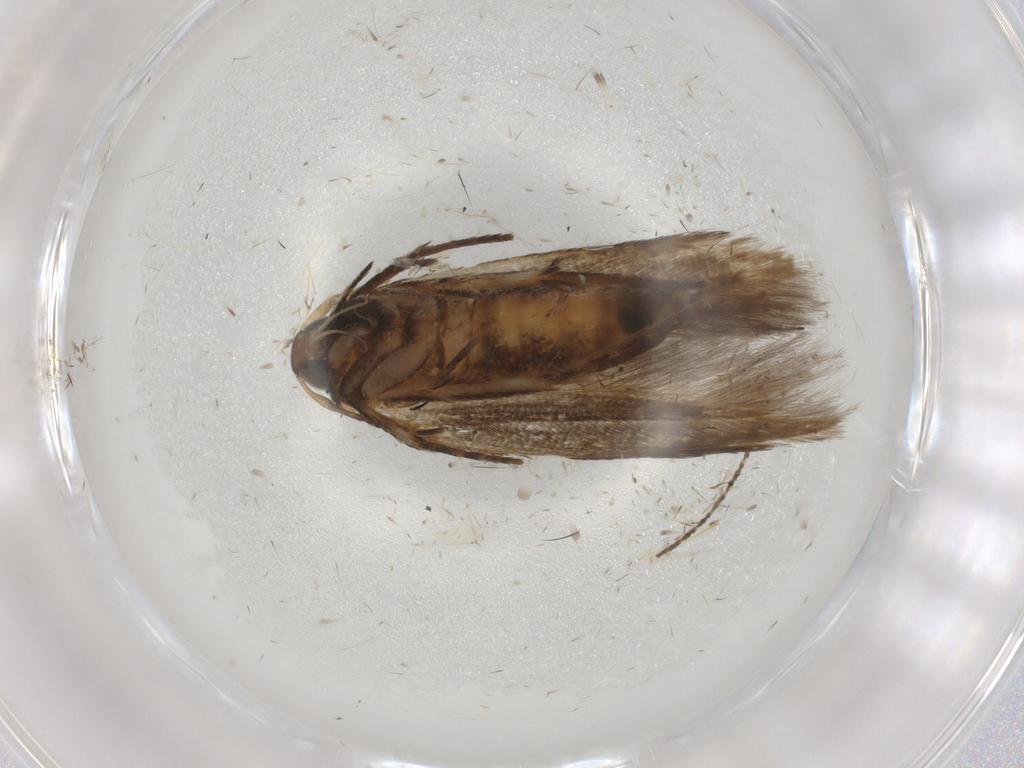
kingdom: Animalia
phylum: Arthropoda
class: Insecta
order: Lepidoptera
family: Cosmopterigidae
